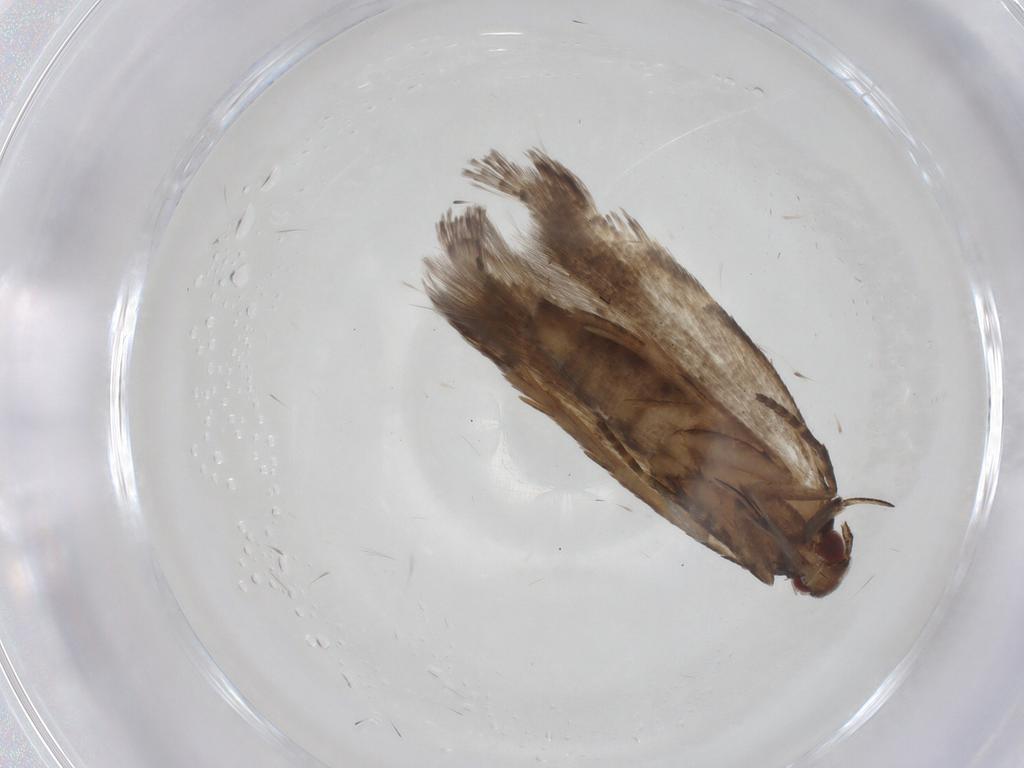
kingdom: Animalia
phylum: Arthropoda
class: Insecta
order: Lepidoptera
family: Gelechiidae
